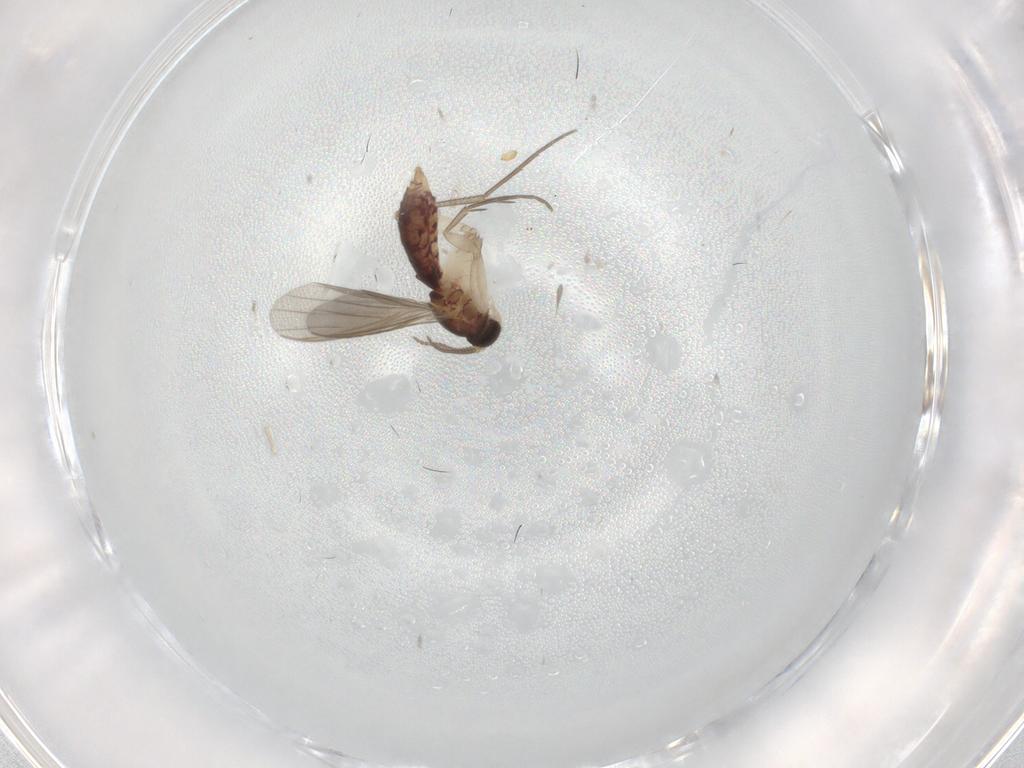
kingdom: Animalia
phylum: Arthropoda
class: Insecta
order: Diptera
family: Mycetophilidae
